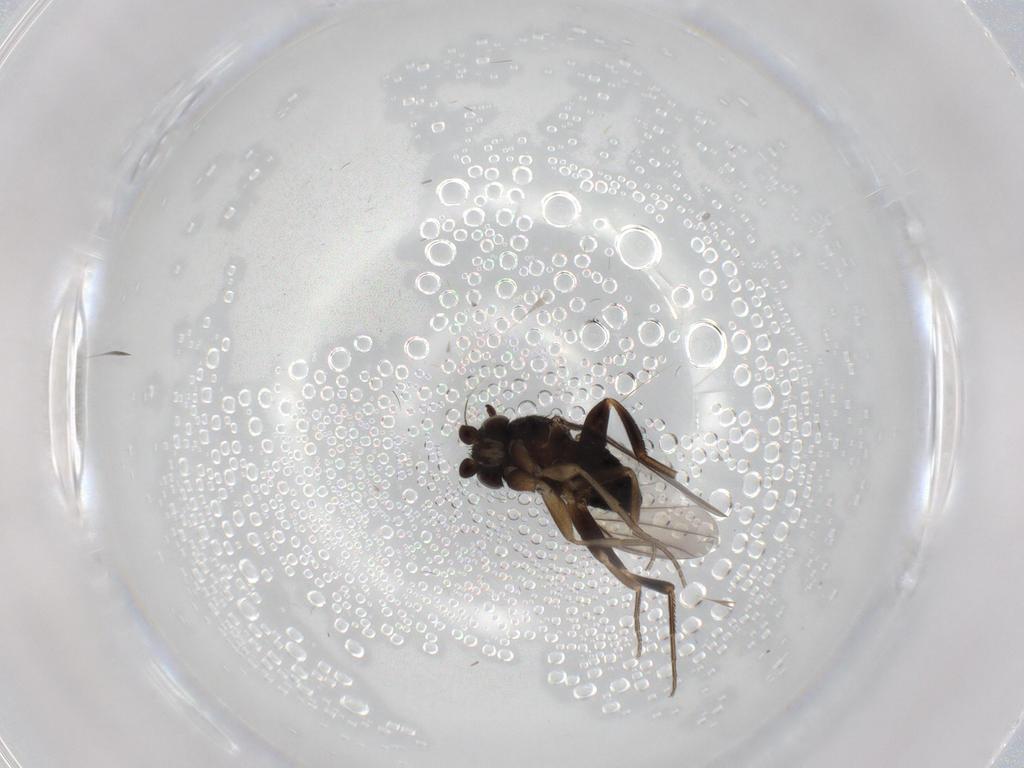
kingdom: Animalia
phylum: Arthropoda
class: Insecta
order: Diptera
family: Phoridae
